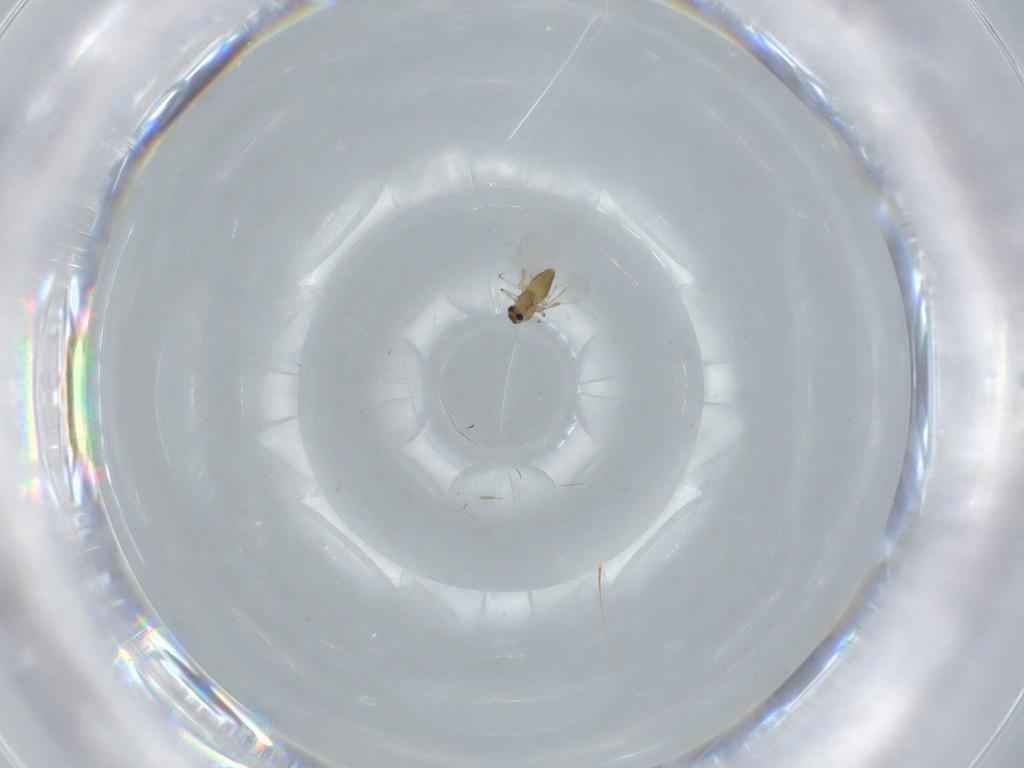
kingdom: Animalia
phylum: Arthropoda
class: Insecta
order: Diptera
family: Chironomidae
